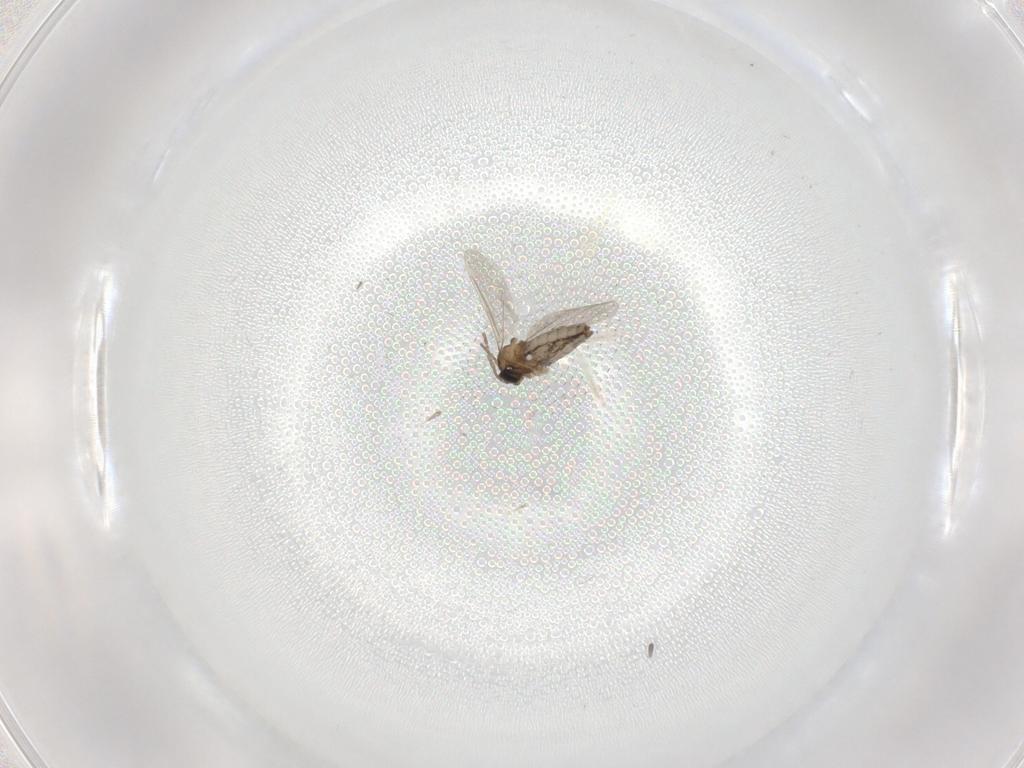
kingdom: Animalia
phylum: Arthropoda
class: Insecta
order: Diptera
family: Cecidomyiidae
